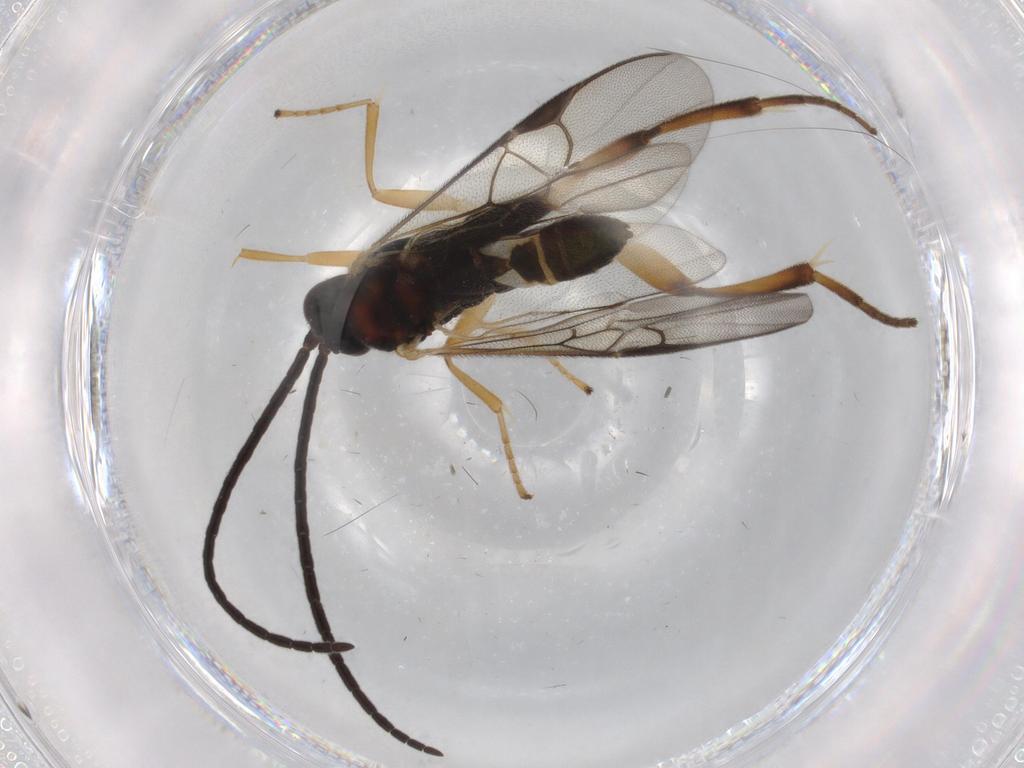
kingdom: Animalia
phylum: Arthropoda
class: Insecta
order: Hymenoptera
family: Braconidae
